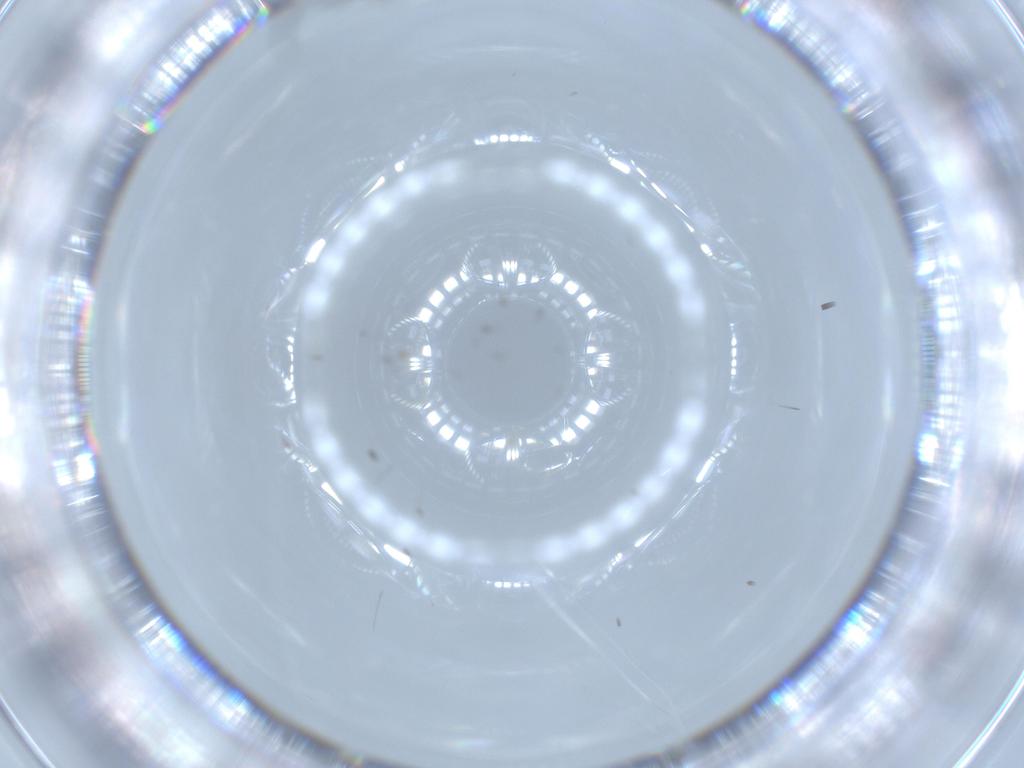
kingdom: Animalia
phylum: Arthropoda
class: Insecta
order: Diptera
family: Sciaridae
